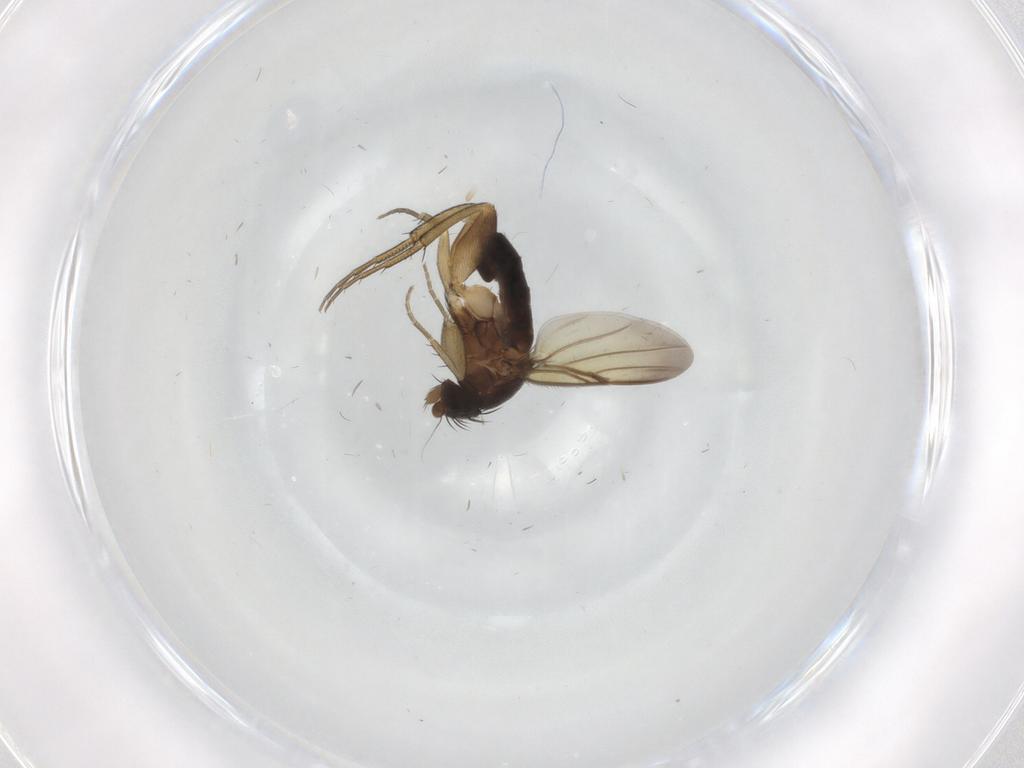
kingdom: Animalia
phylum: Arthropoda
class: Insecta
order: Diptera
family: Phoridae
